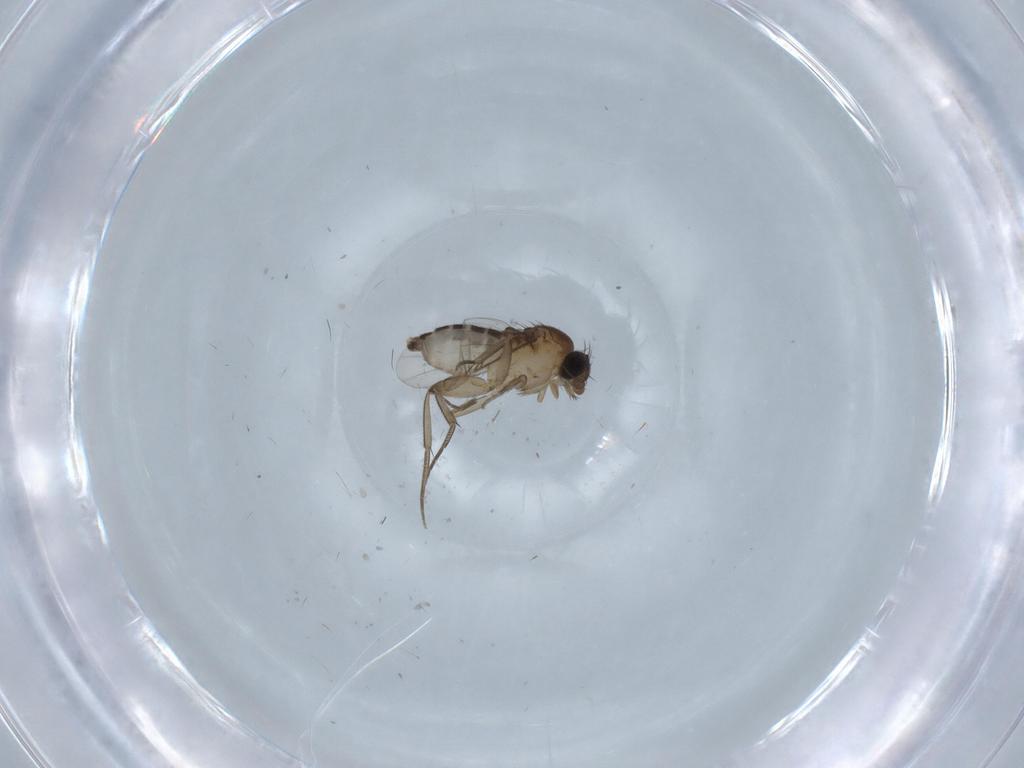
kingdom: Animalia
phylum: Arthropoda
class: Insecta
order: Diptera
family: Phoridae
